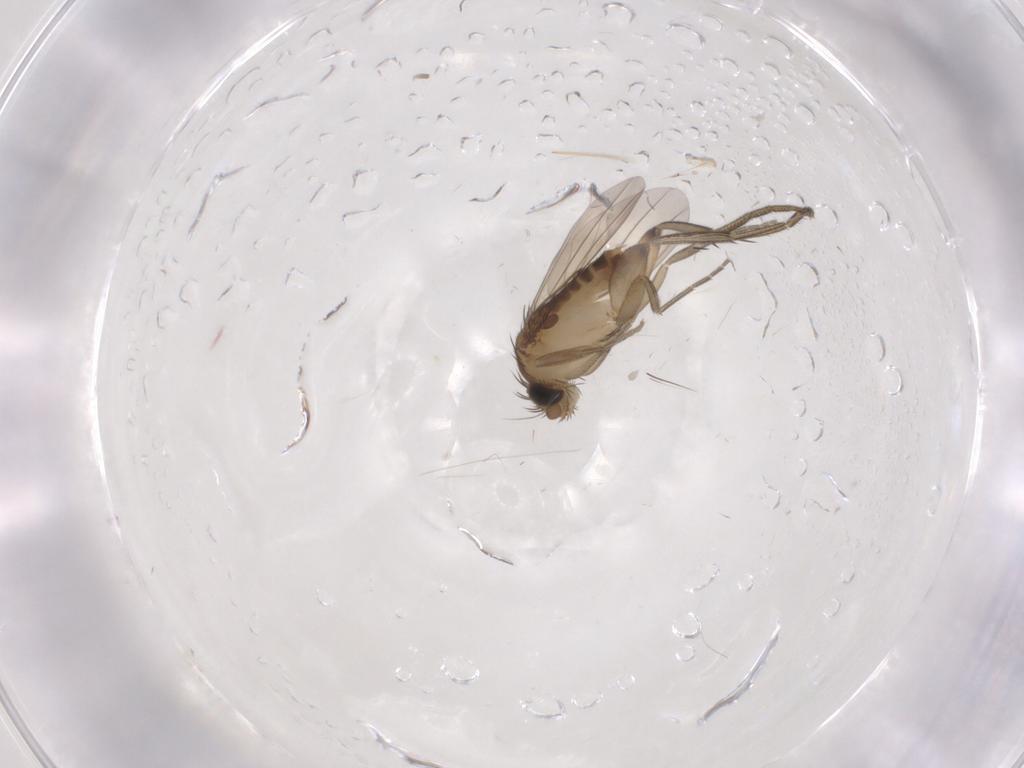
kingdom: Animalia
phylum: Arthropoda
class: Insecta
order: Diptera
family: Phoridae
